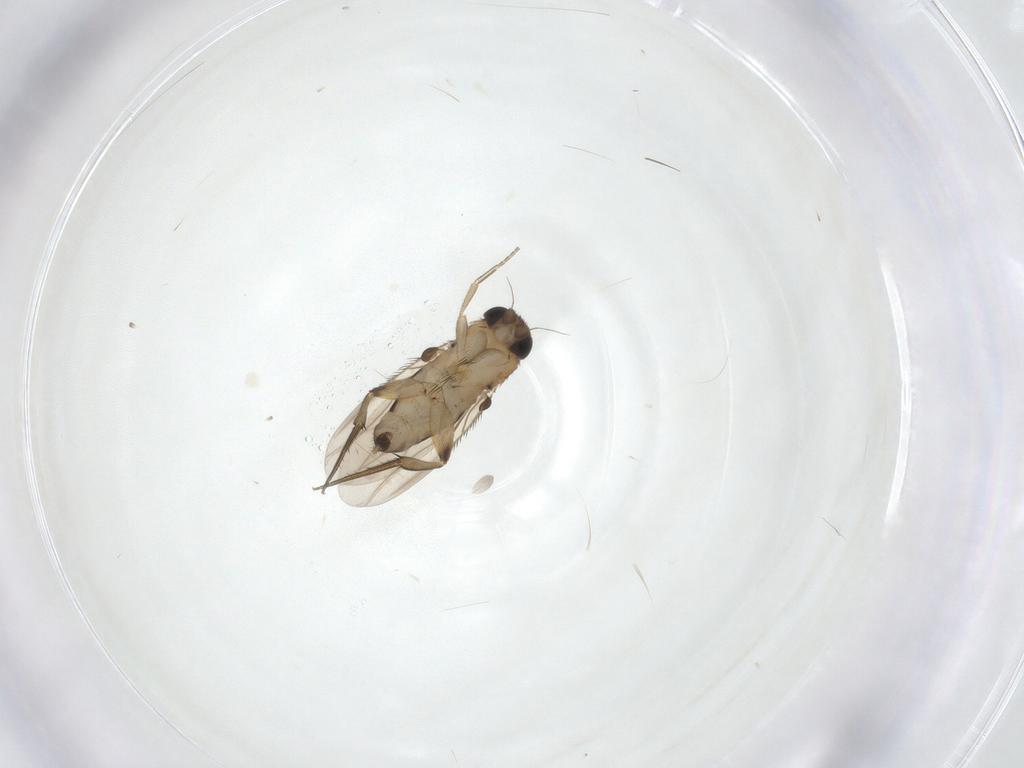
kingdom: Animalia
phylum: Arthropoda
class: Insecta
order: Diptera
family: Phoridae
